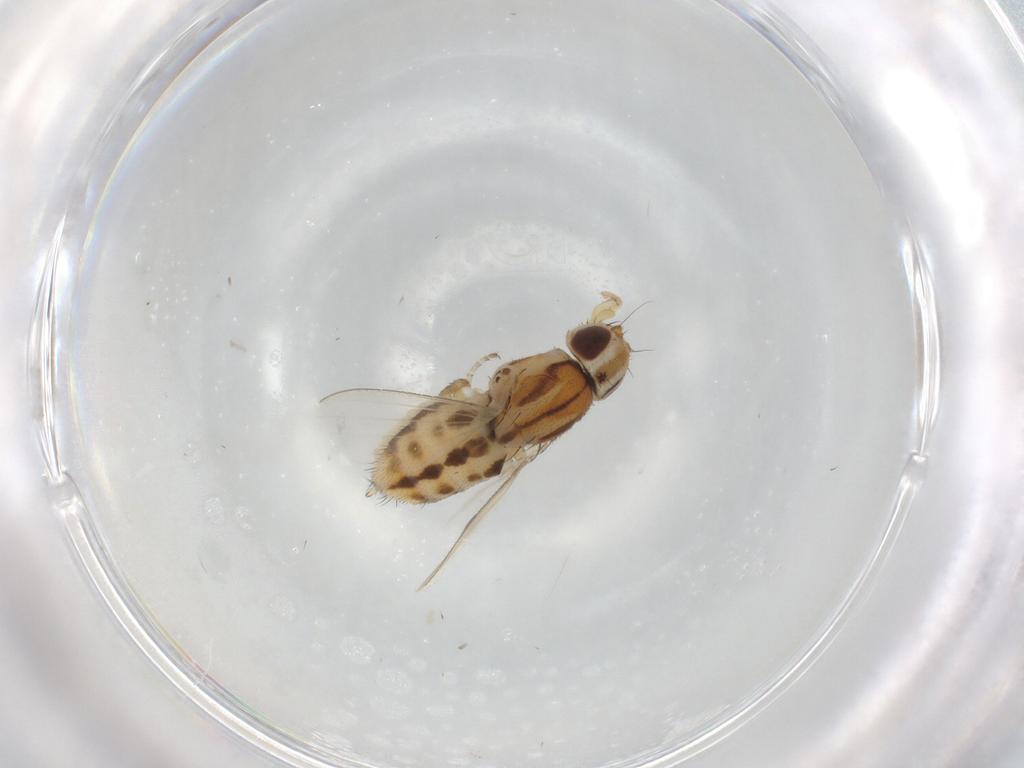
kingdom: Animalia
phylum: Arthropoda
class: Insecta
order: Diptera
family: Milichiidae
